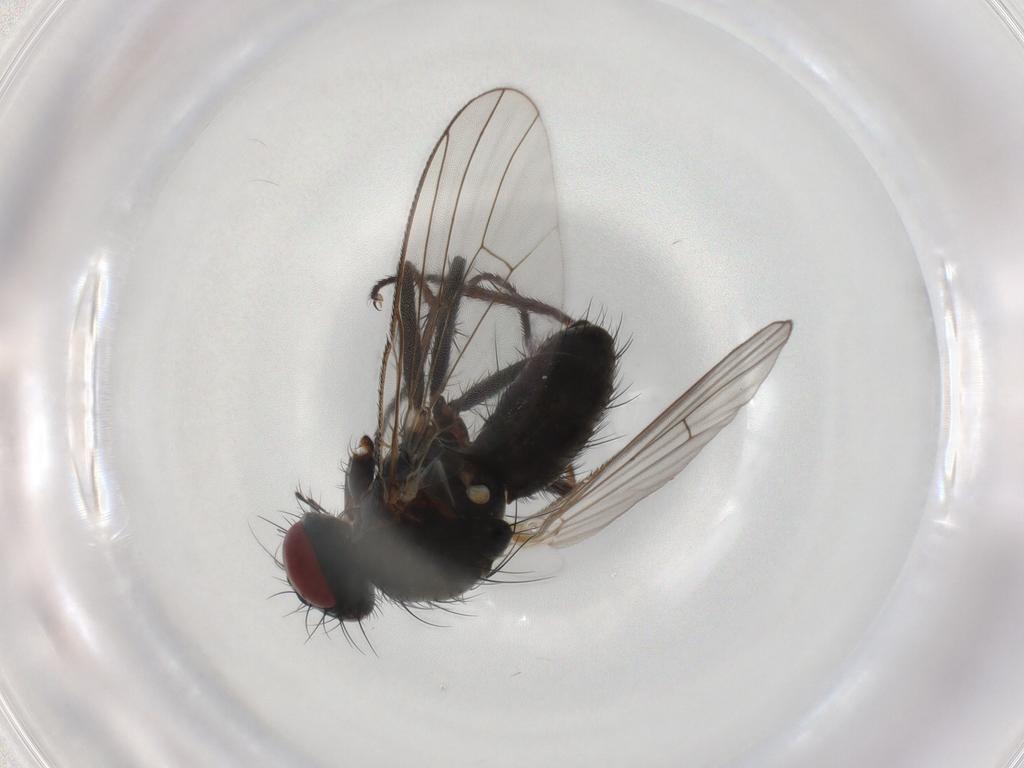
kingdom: Animalia
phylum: Arthropoda
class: Insecta
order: Diptera
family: Muscidae
